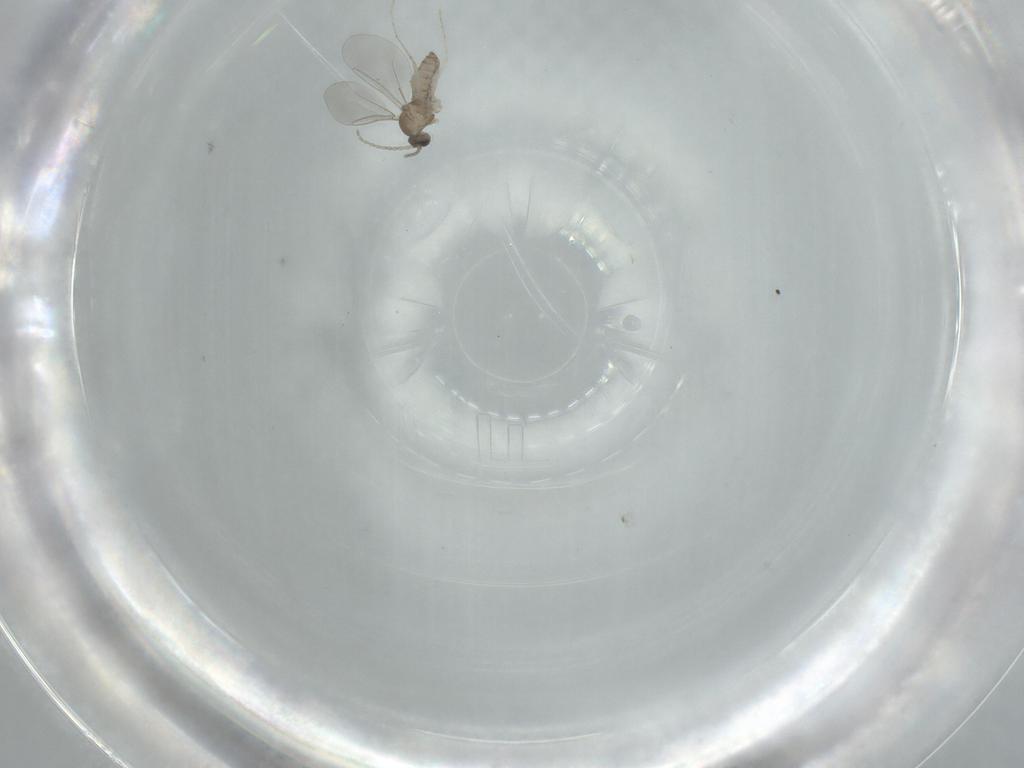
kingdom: Animalia
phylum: Arthropoda
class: Insecta
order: Diptera
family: Cecidomyiidae
